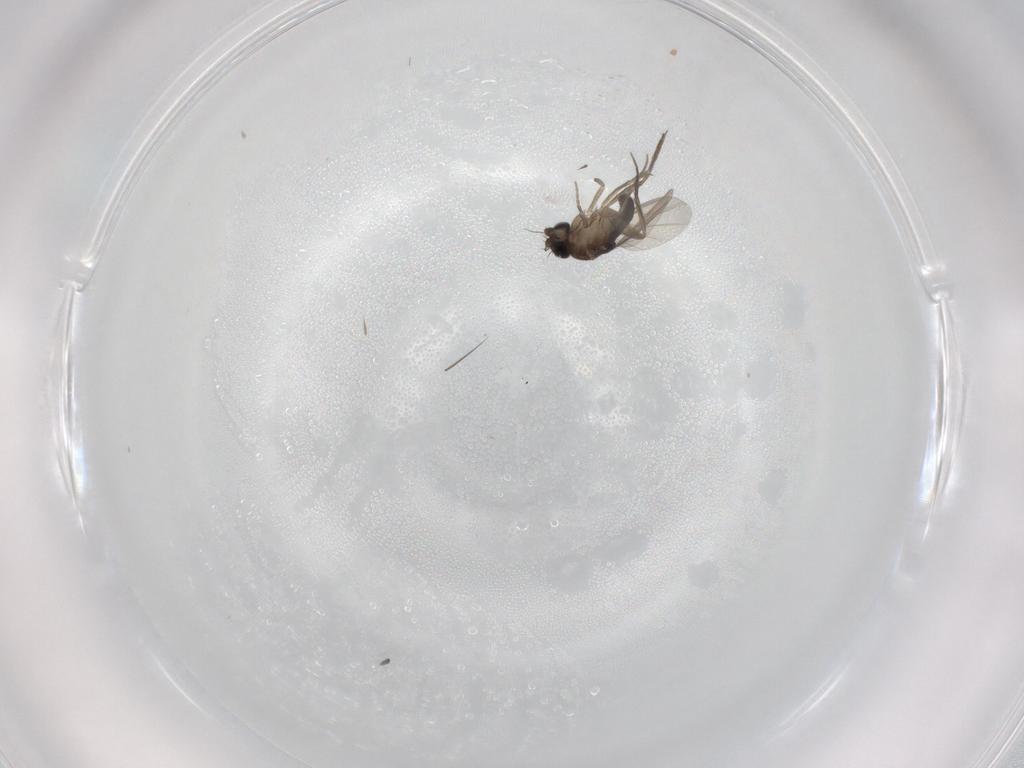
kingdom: Animalia
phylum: Arthropoda
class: Insecta
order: Diptera
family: Phoridae
